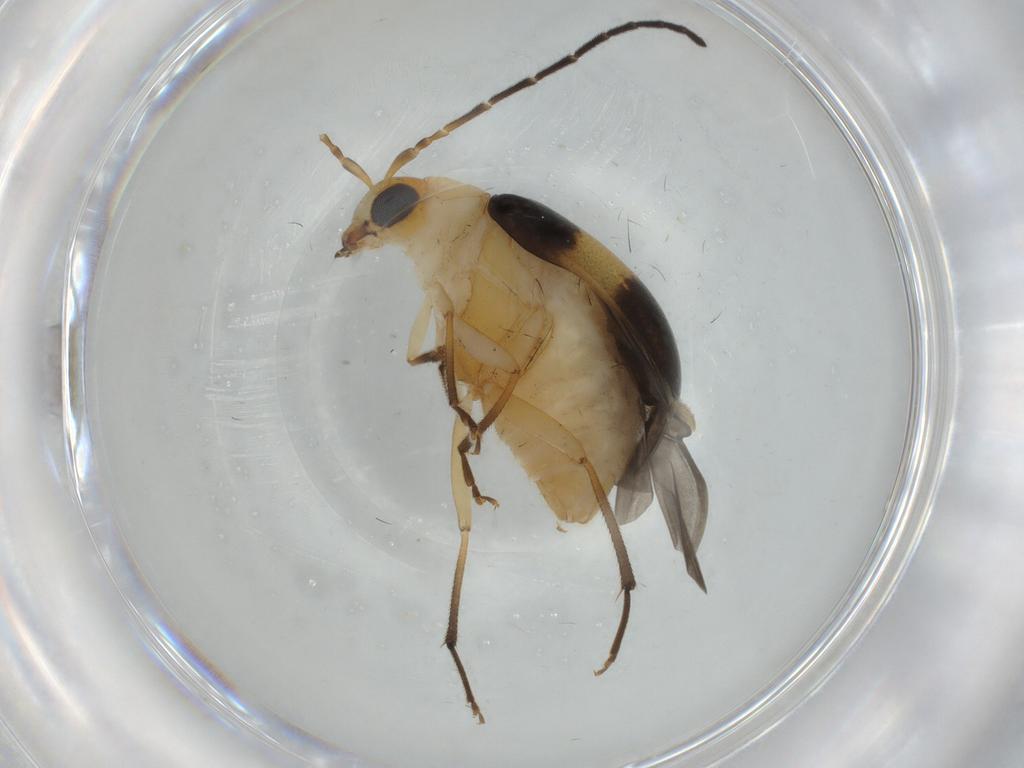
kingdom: Animalia
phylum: Arthropoda
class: Insecta
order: Coleoptera
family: Chrysomelidae
